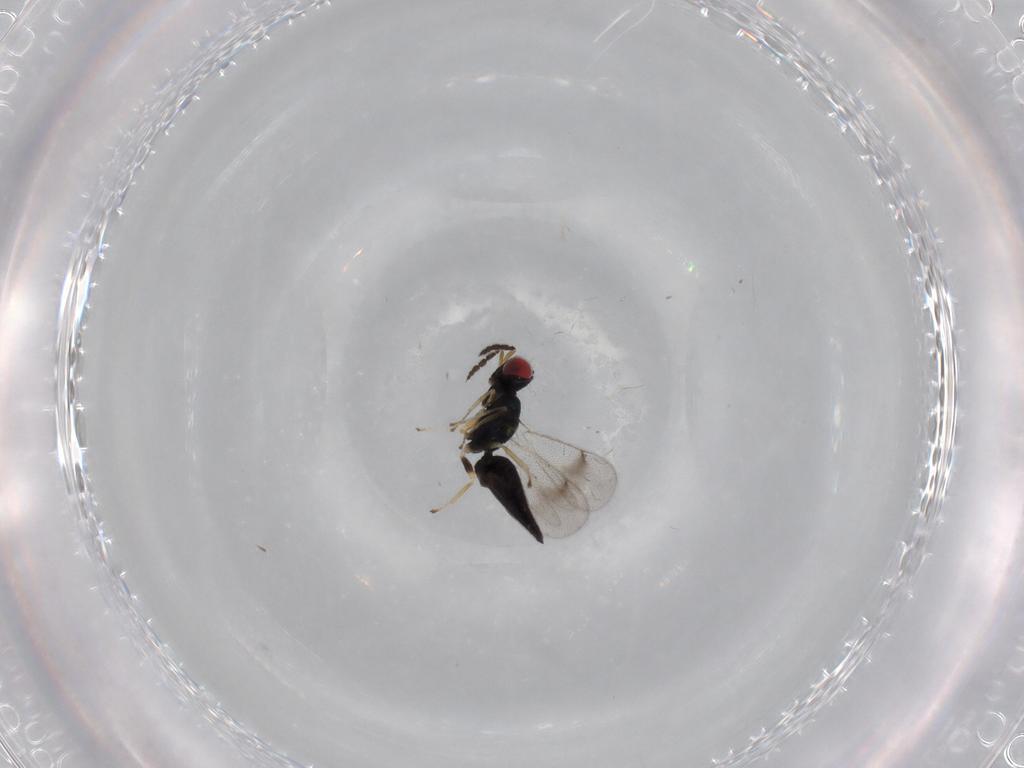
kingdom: Animalia
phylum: Arthropoda
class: Insecta
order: Hymenoptera
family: Eulophidae
